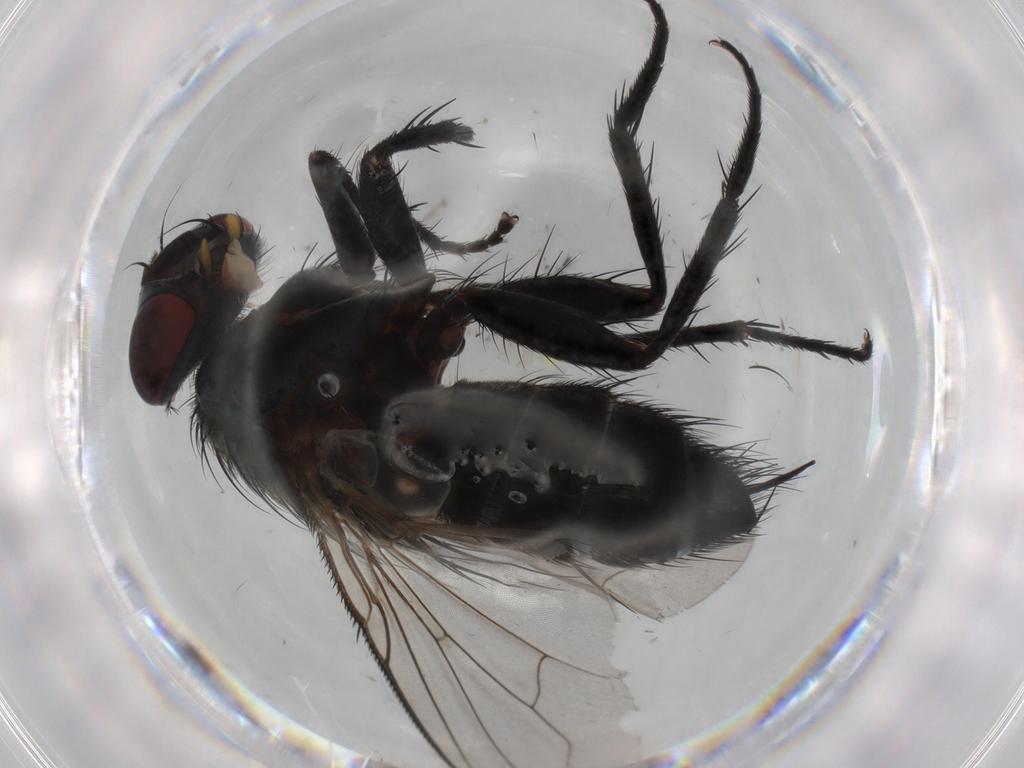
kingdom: Animalia
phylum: Arthropoda
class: Insecta
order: Diptera
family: Tachinidae
